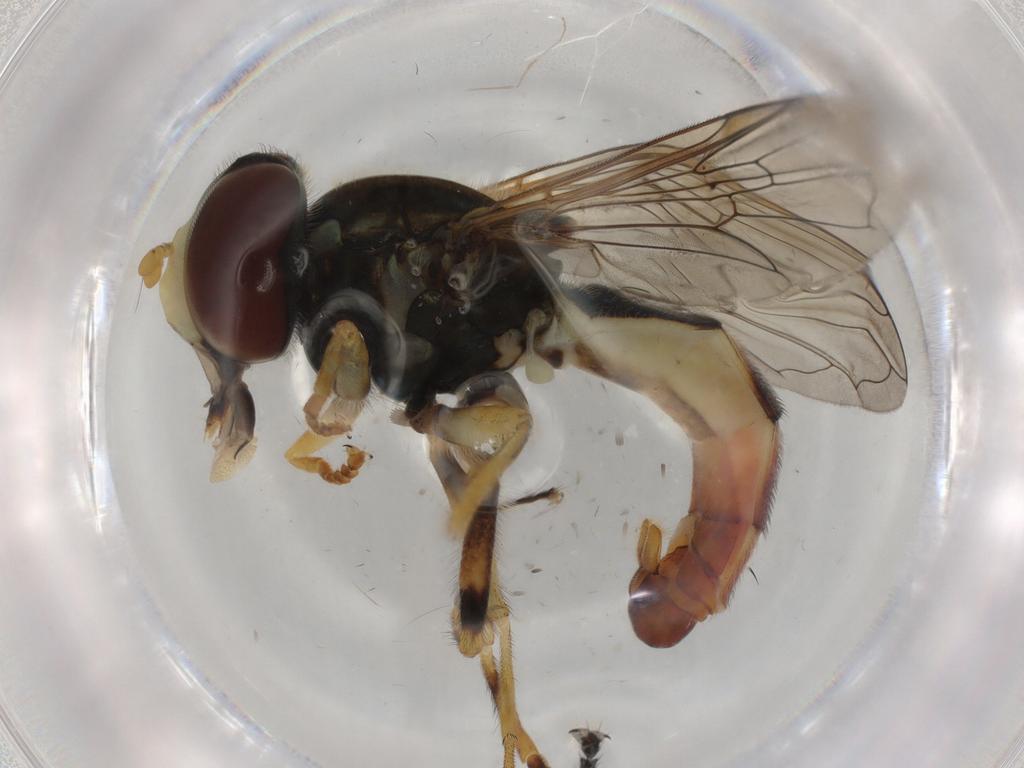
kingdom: Animalia
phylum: Arthropoda
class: Insecta
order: Diptera
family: Syrphidae
